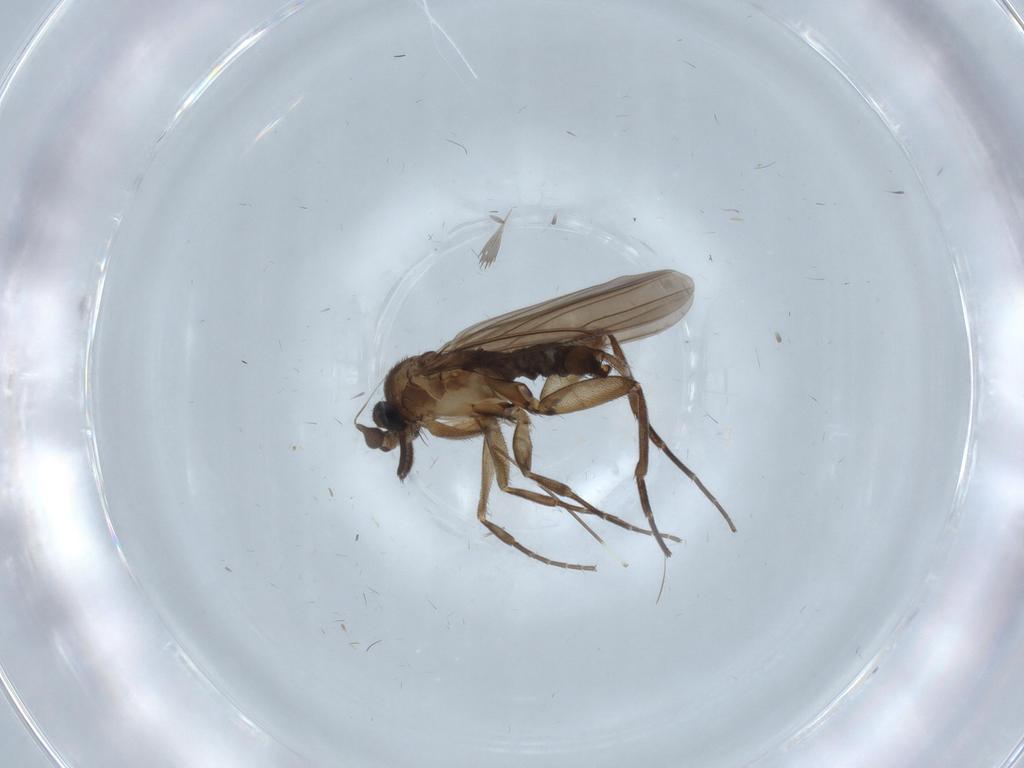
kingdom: Animalia
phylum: Arthropoda
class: Insecta
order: Diptera
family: Phoridae
